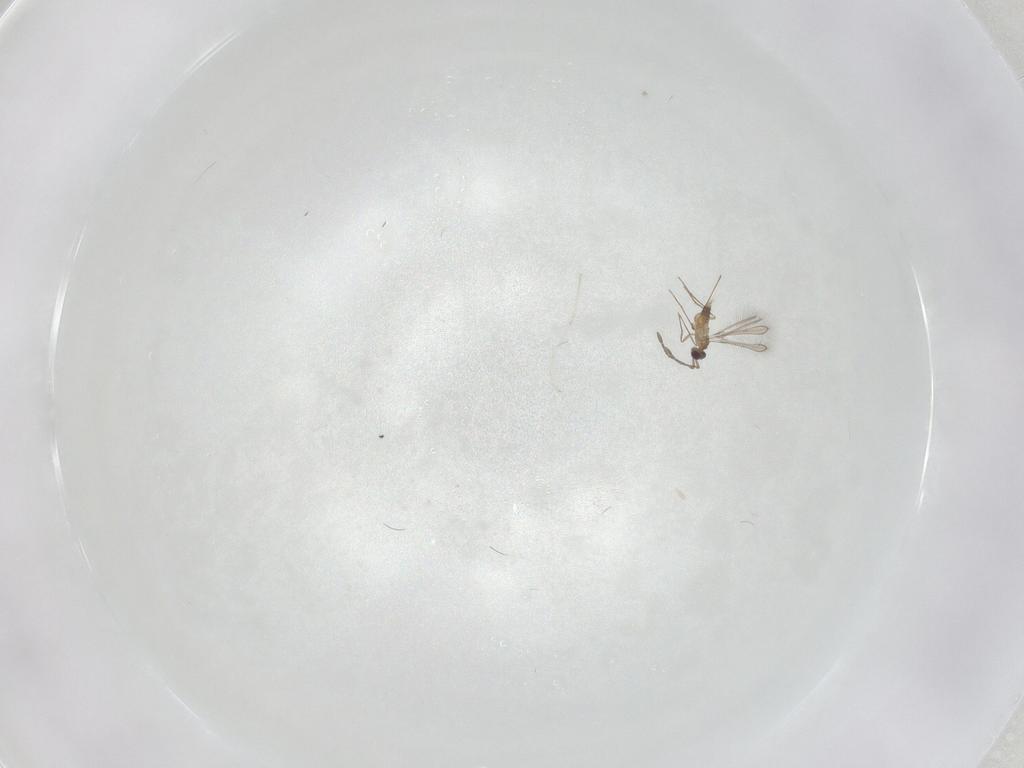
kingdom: Animalia
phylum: Arthropoda
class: Insecta
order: Hymenoptera
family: Mymaridae
